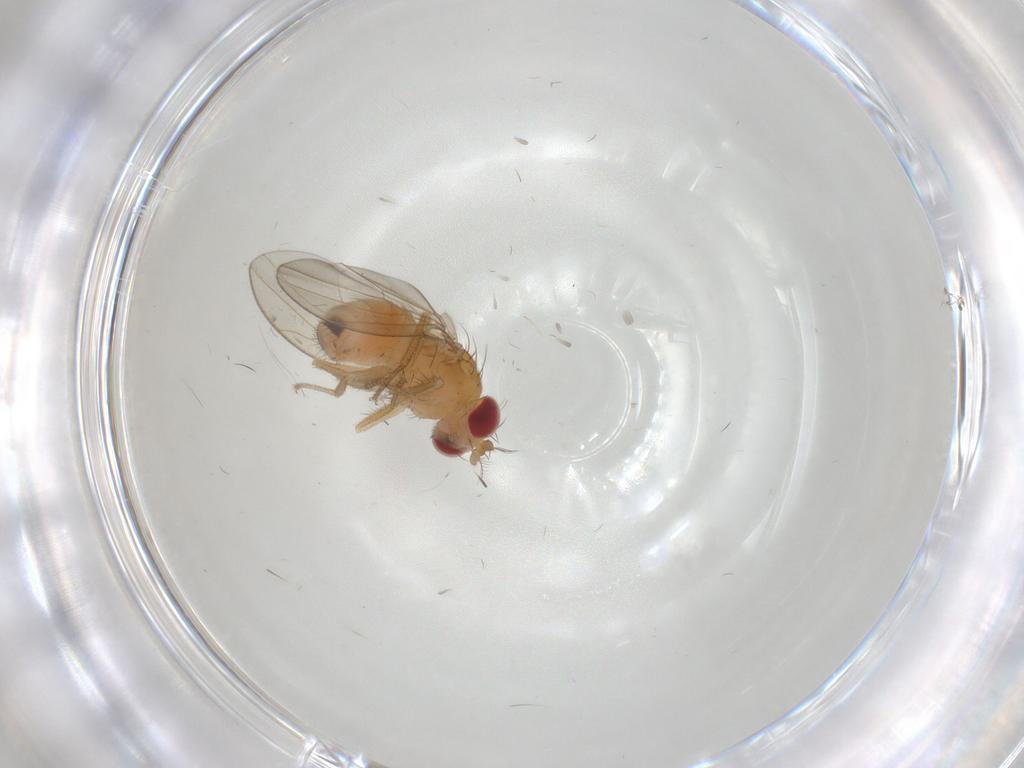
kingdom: Animalia
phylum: Arthropoda
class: Insecta
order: Diptera
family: Drosophilidae
